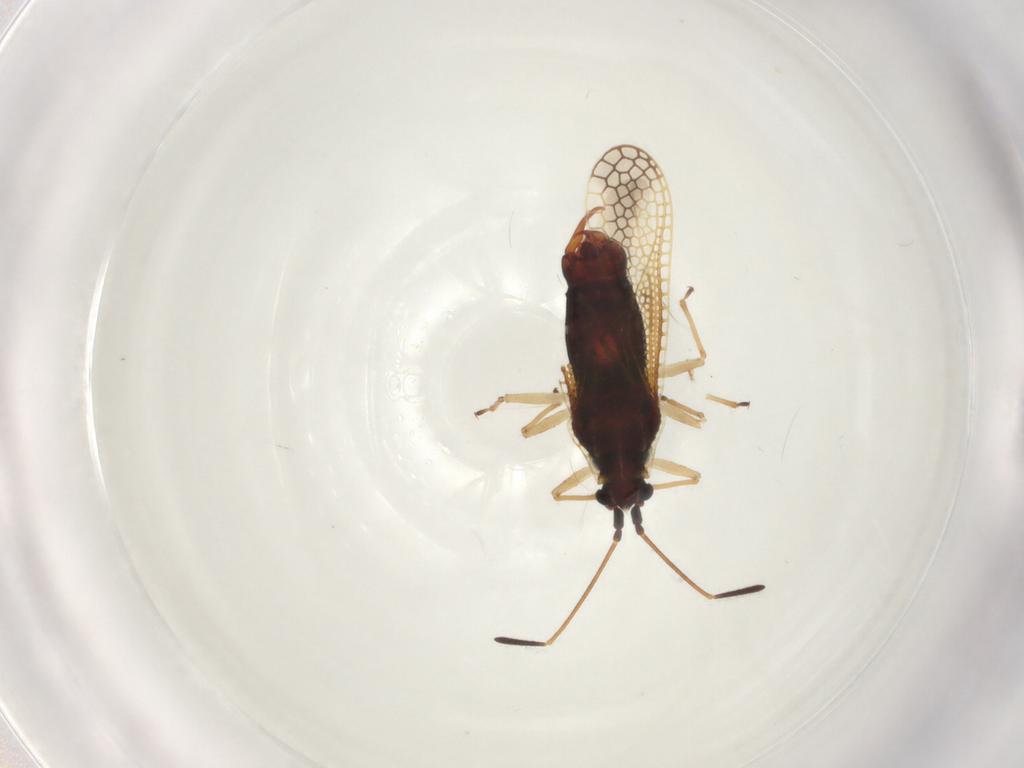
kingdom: Animalia
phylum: Arthropoda
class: Insecta
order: Hemiptera
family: Tingidae
